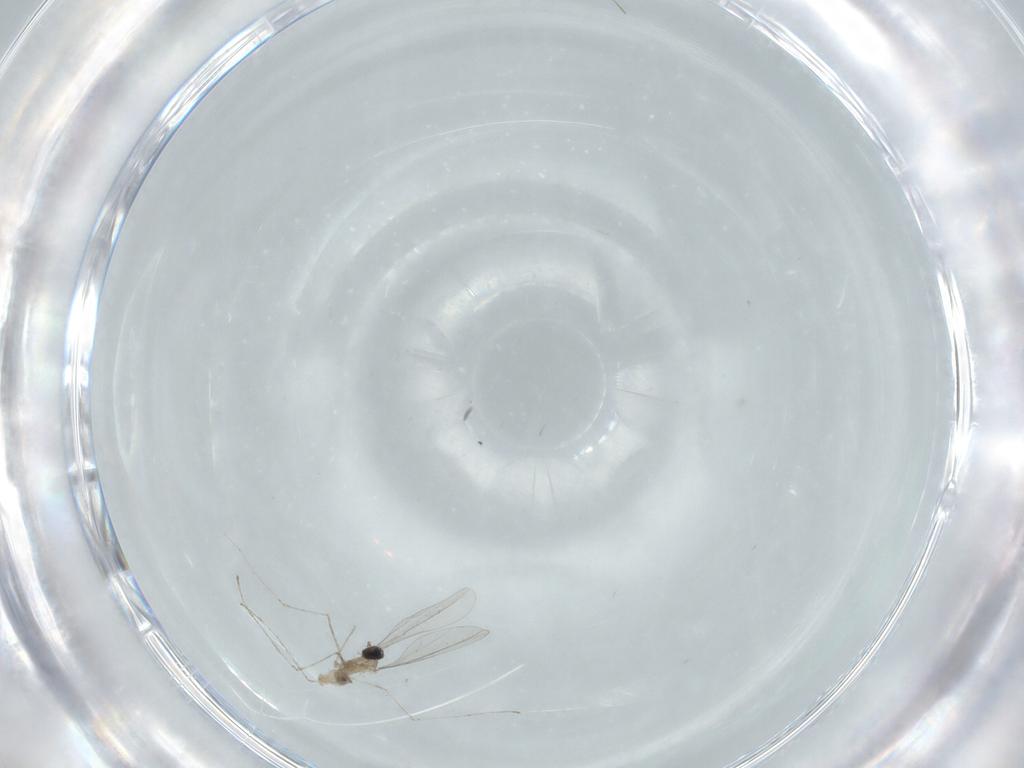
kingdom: Animalia
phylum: Arthropoda
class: Insecta
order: Diptera
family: Cecidomyiidae
